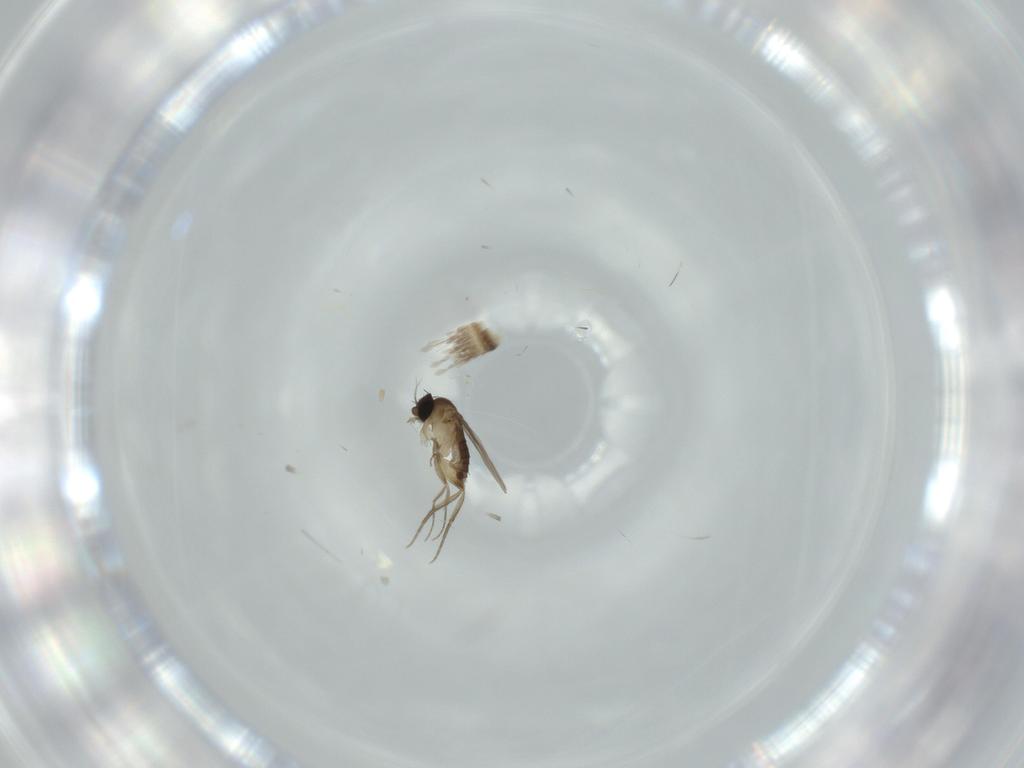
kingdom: Animalia
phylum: Arthropoda
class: Insecta
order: Diptera
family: Phoridae
